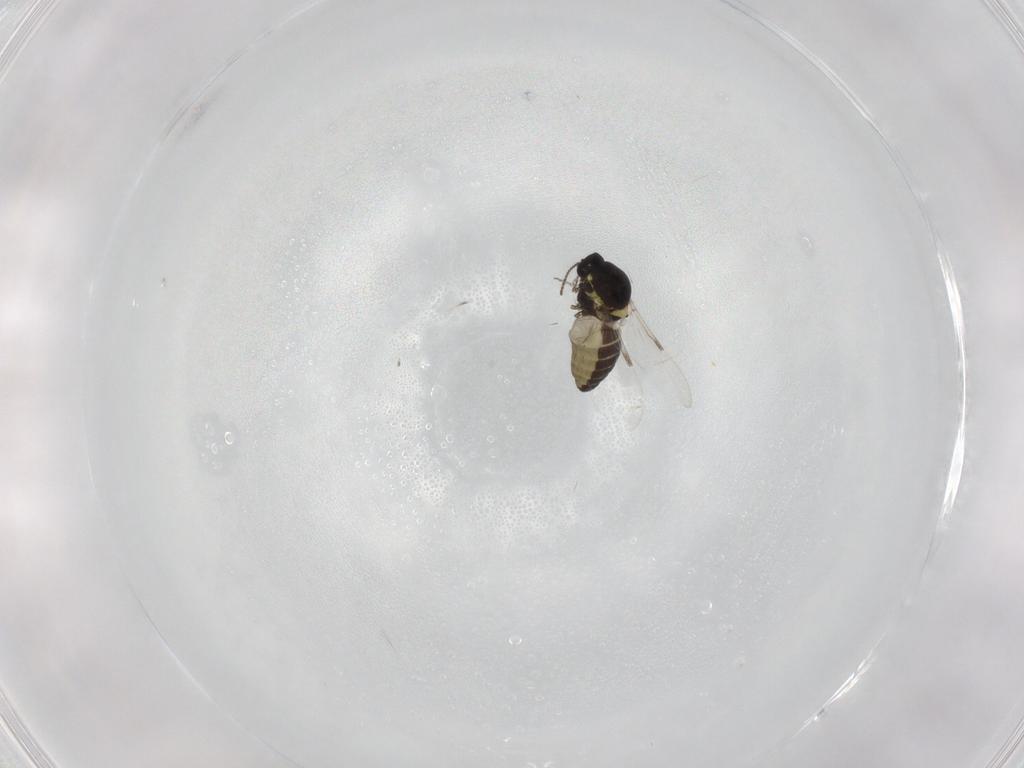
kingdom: Animalia
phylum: Arthropoda
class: Insecta
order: Diptera
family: Ceratopogonidae
